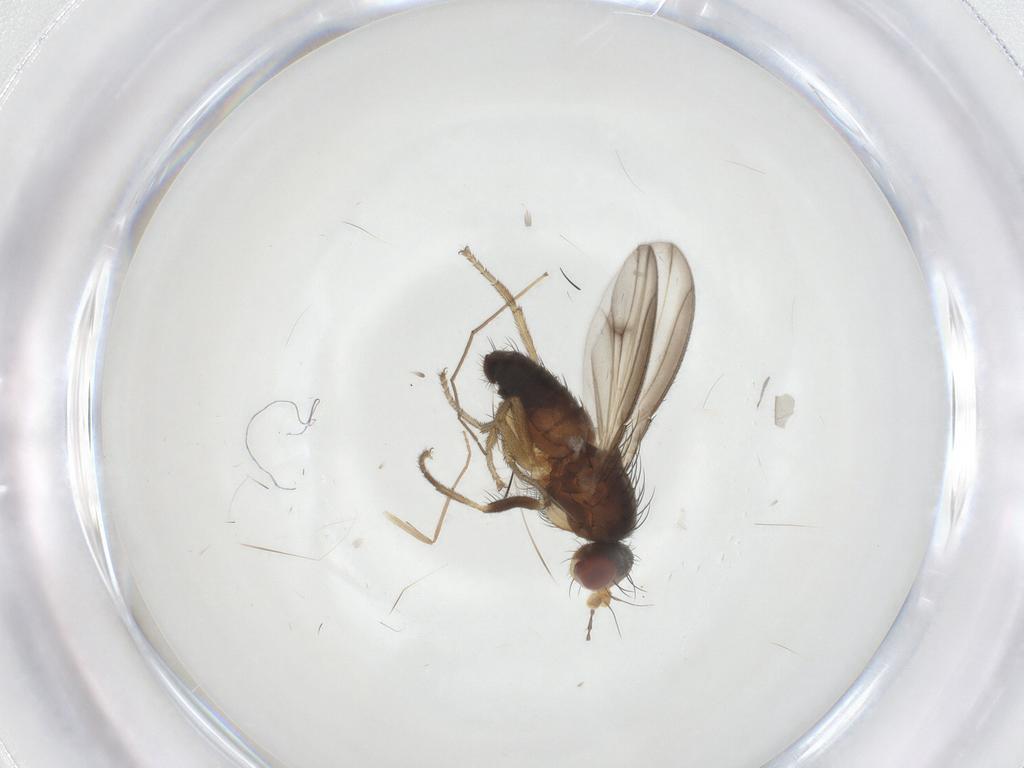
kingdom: Animalia
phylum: Arthropoda
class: Insecta
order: Diptera
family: Heleomyzidae
